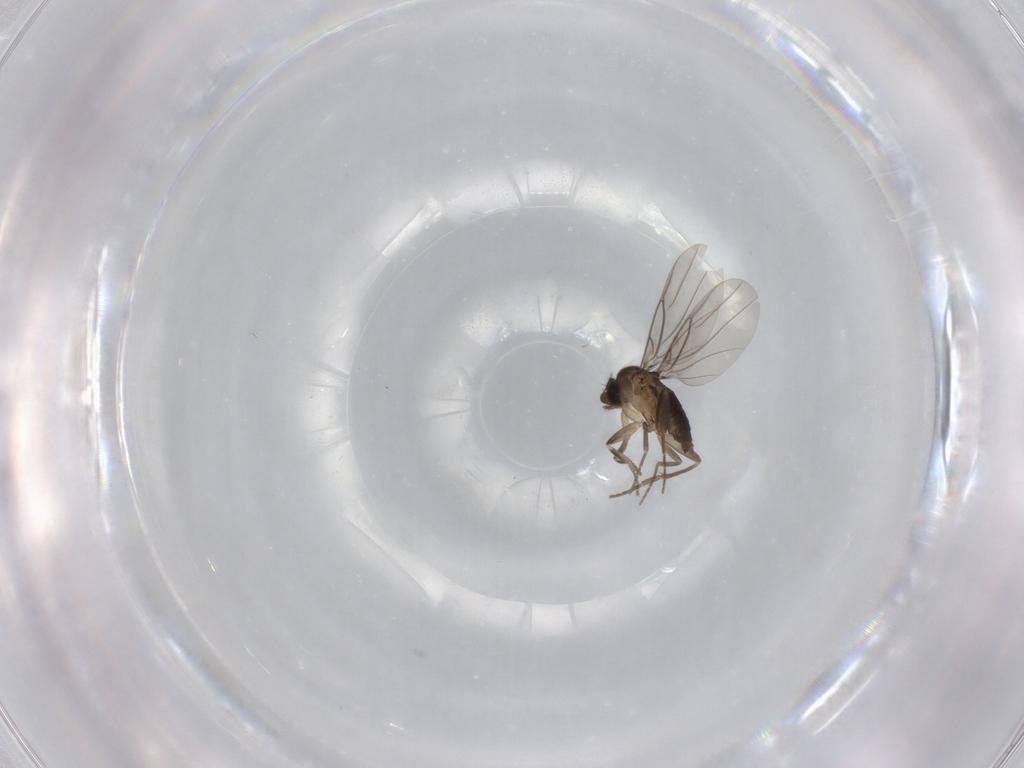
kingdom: Animalia
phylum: Arthropoda
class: Insecta
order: Diptera
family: Phoridae
